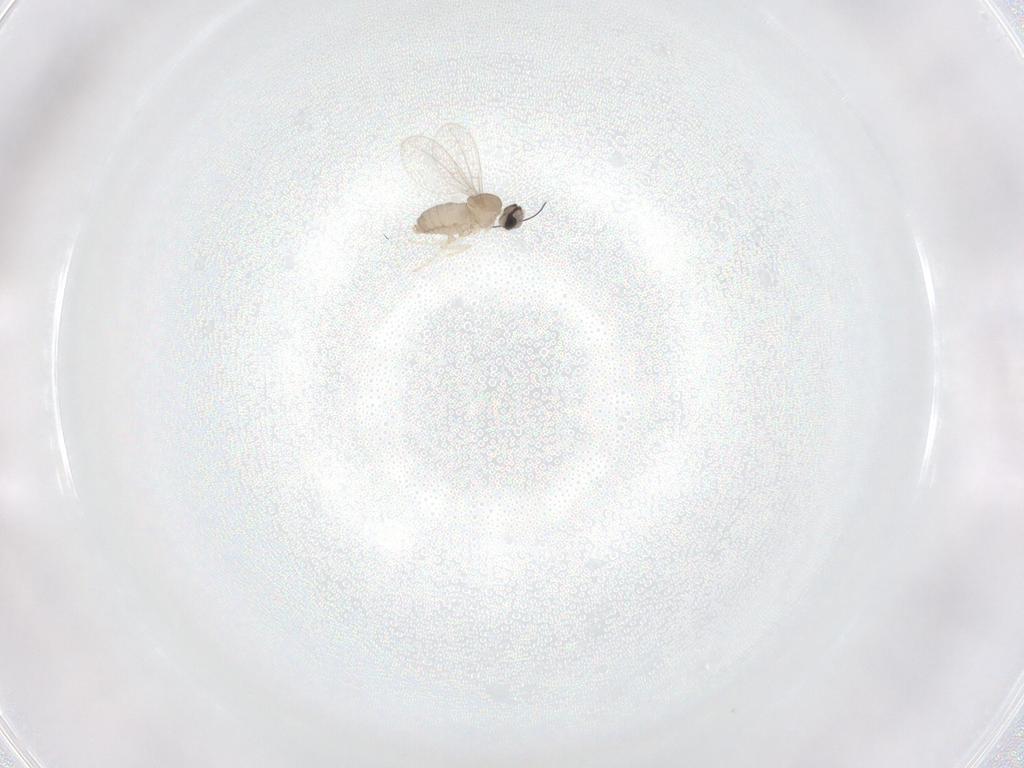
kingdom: Animalia
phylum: Arthropoda
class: Insecta
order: Diptera
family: Cecidomyiidae
